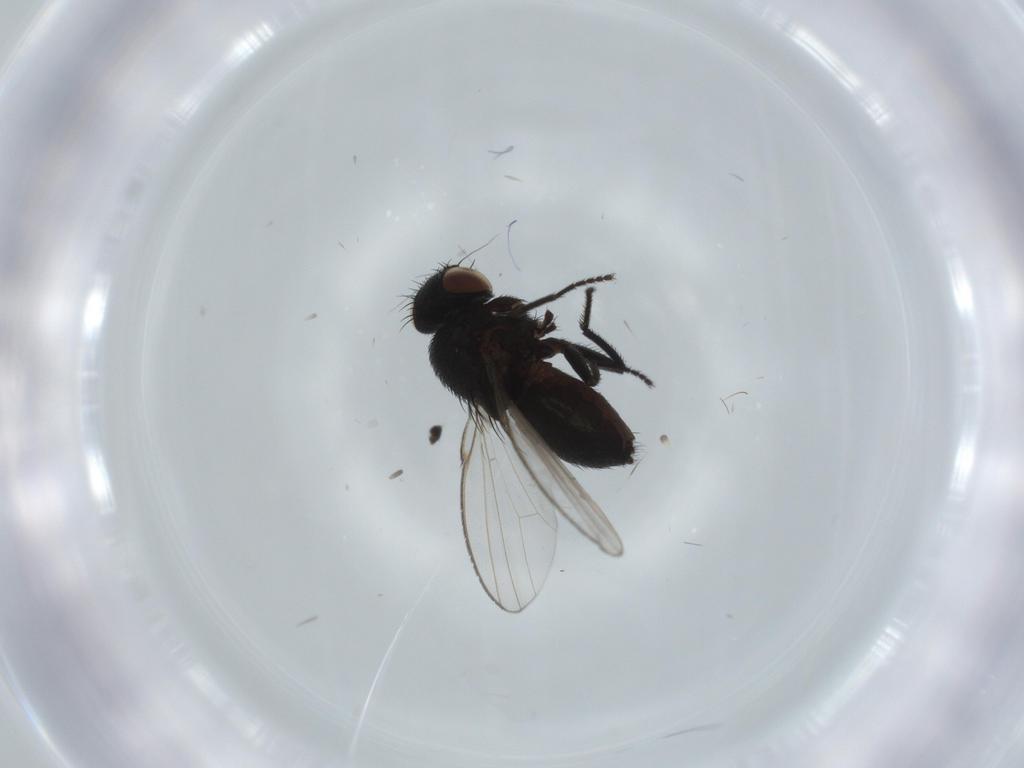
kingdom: Animalia
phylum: Arthropoda
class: Insecta
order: Diptera
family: Milichiidae
